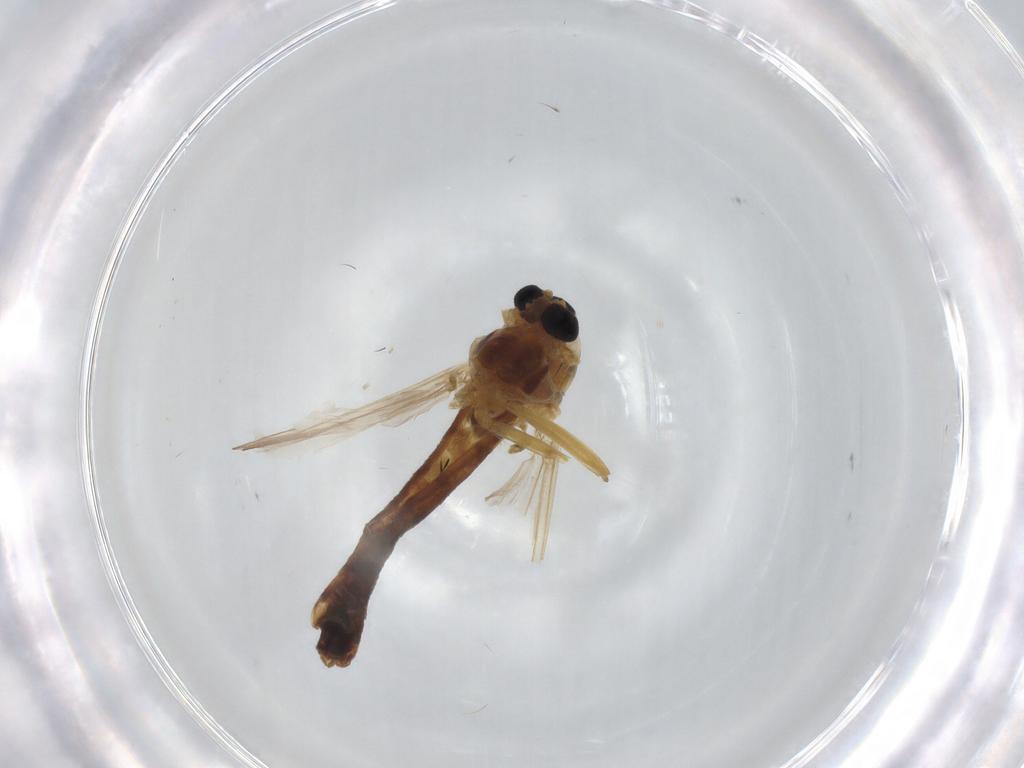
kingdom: Animalia
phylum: Arthropoda
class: Insecta
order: Diptera
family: Chironomidae
